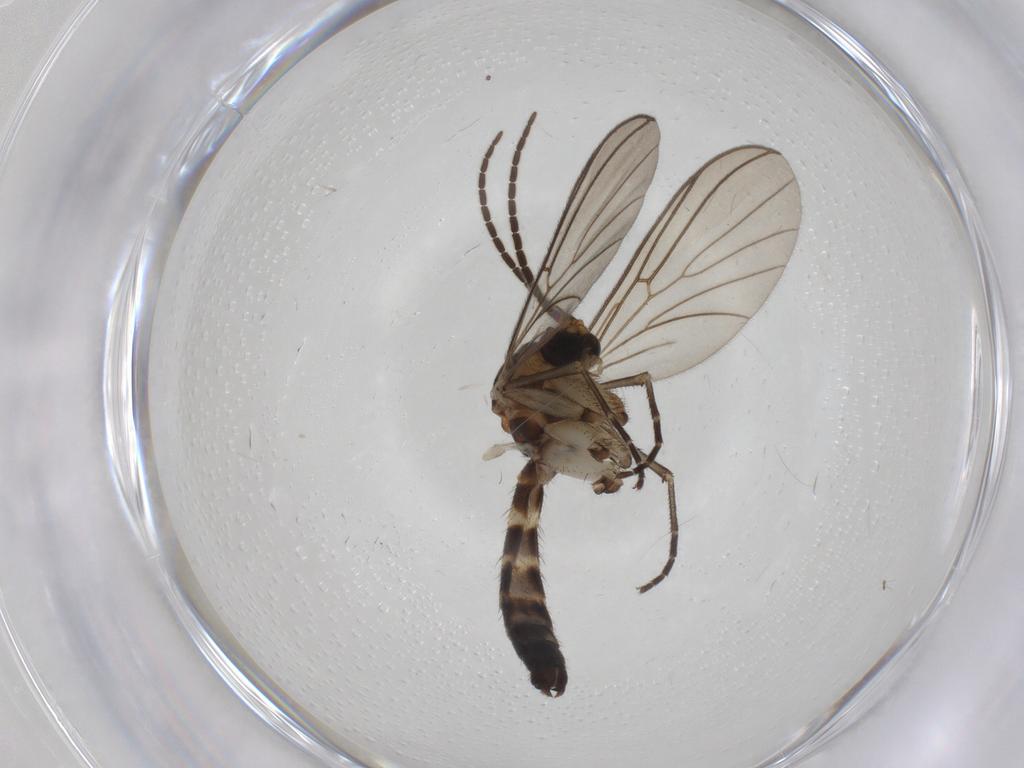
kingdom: Animalia
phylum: Arthropoda
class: Insecta
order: Diptera
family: Mycetophilidae
